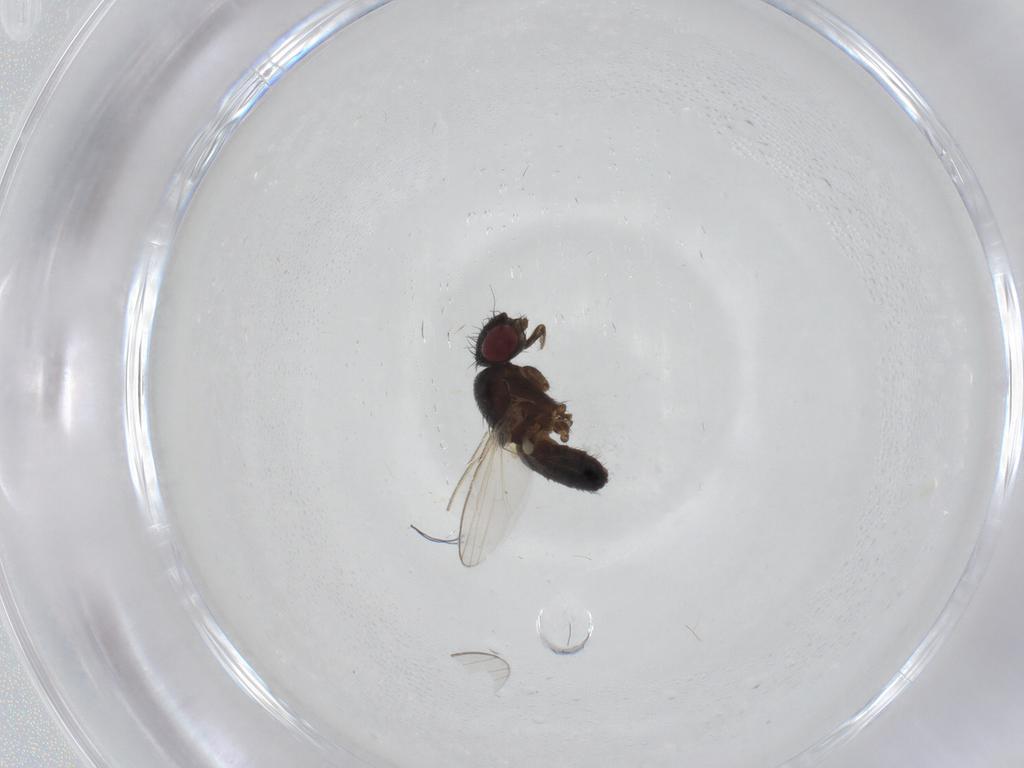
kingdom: Animalia
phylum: Arthropoda
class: Insecta
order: Diptera
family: Milichiidae
